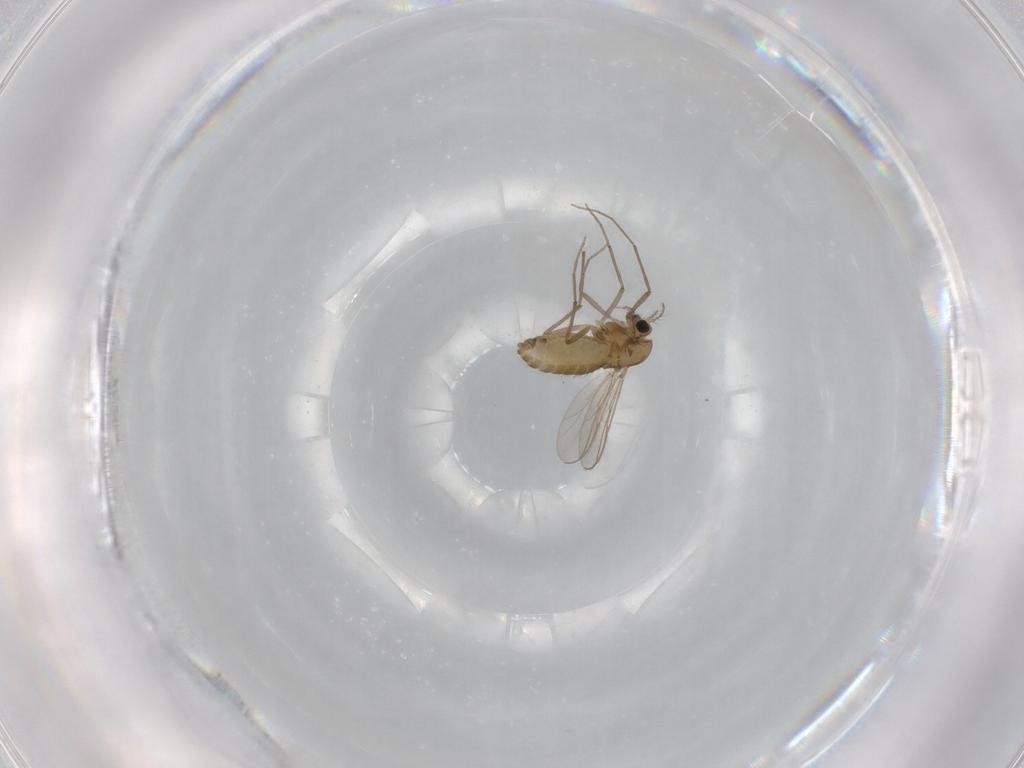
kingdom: Animalia
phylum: Arthropoda
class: Insecta
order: Diptera
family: Chironomidae
